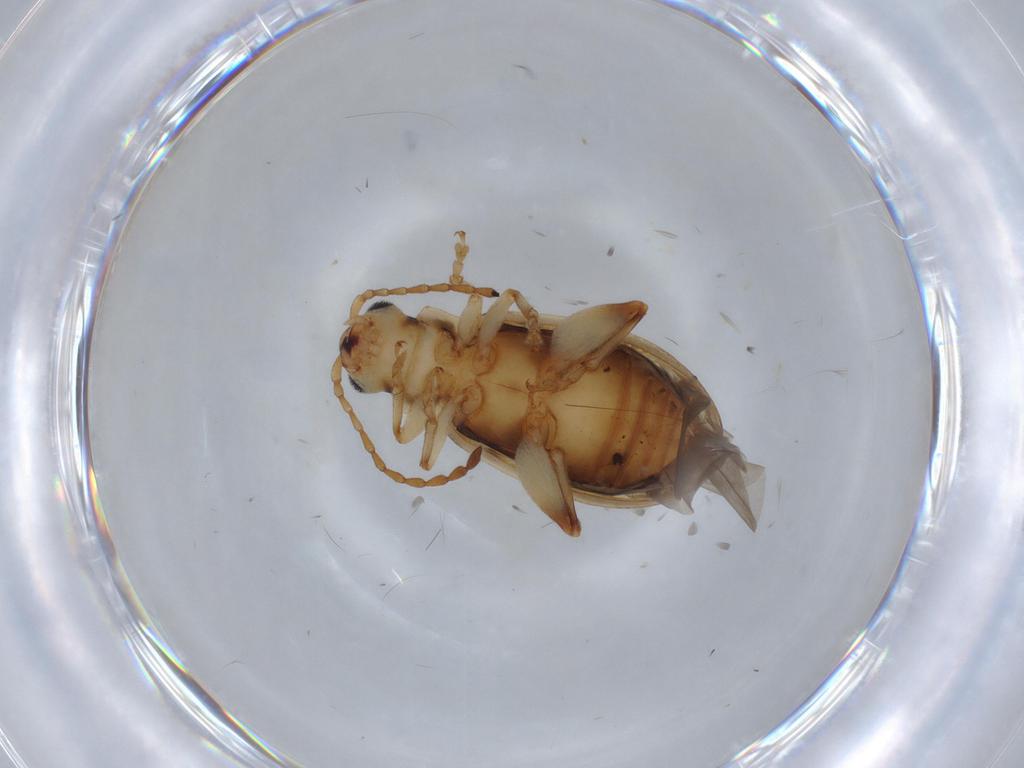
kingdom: Animalia
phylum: Arthropoda
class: Insecta
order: Coleoptera
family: Chrysomelidae
